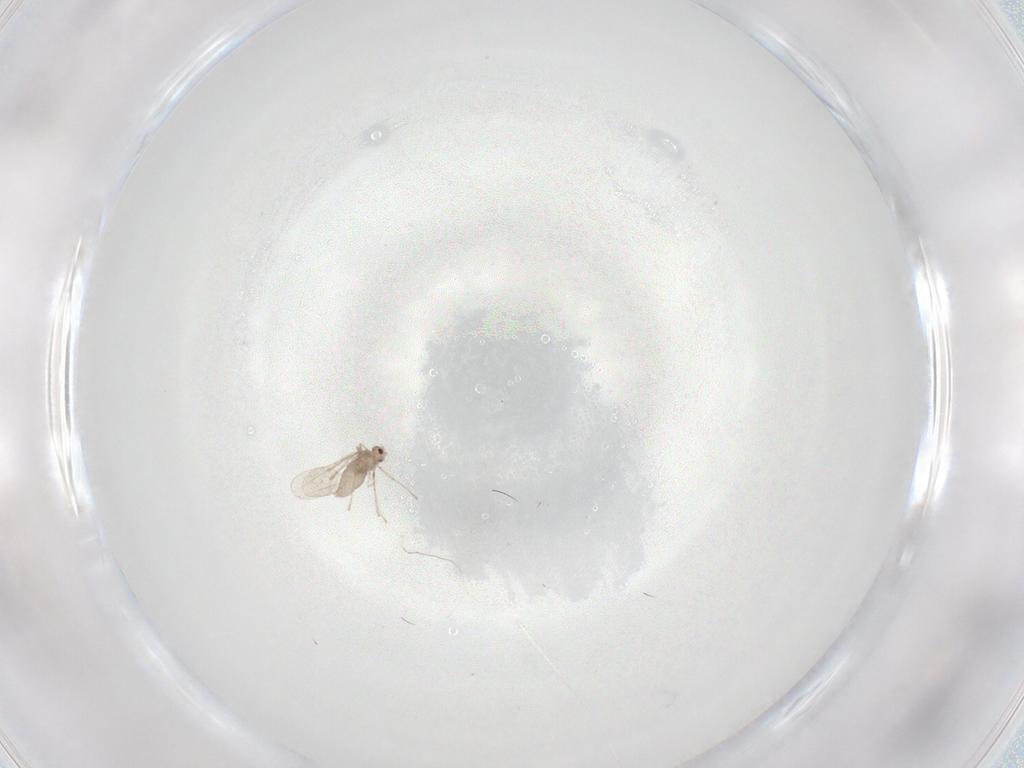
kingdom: Animalia
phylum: Arthropoda
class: Insecta
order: Diptera
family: Cecidomyiidae
